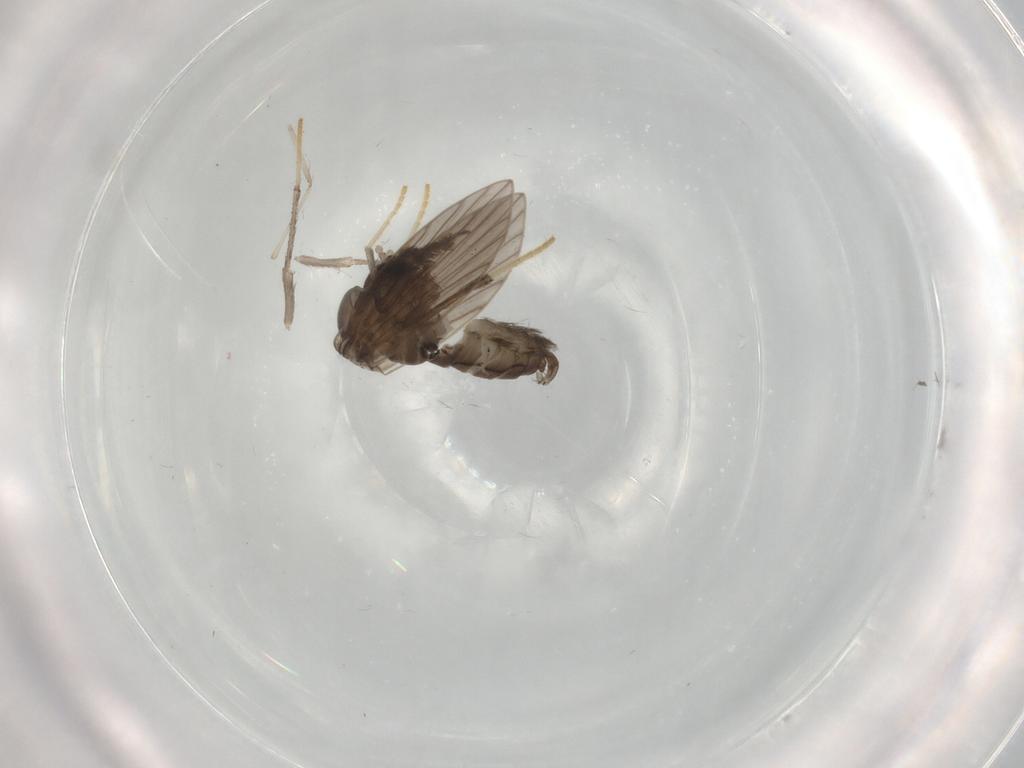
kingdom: Animalia
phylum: Arthropoda
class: Insecta
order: Diptera
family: Psychodidae
